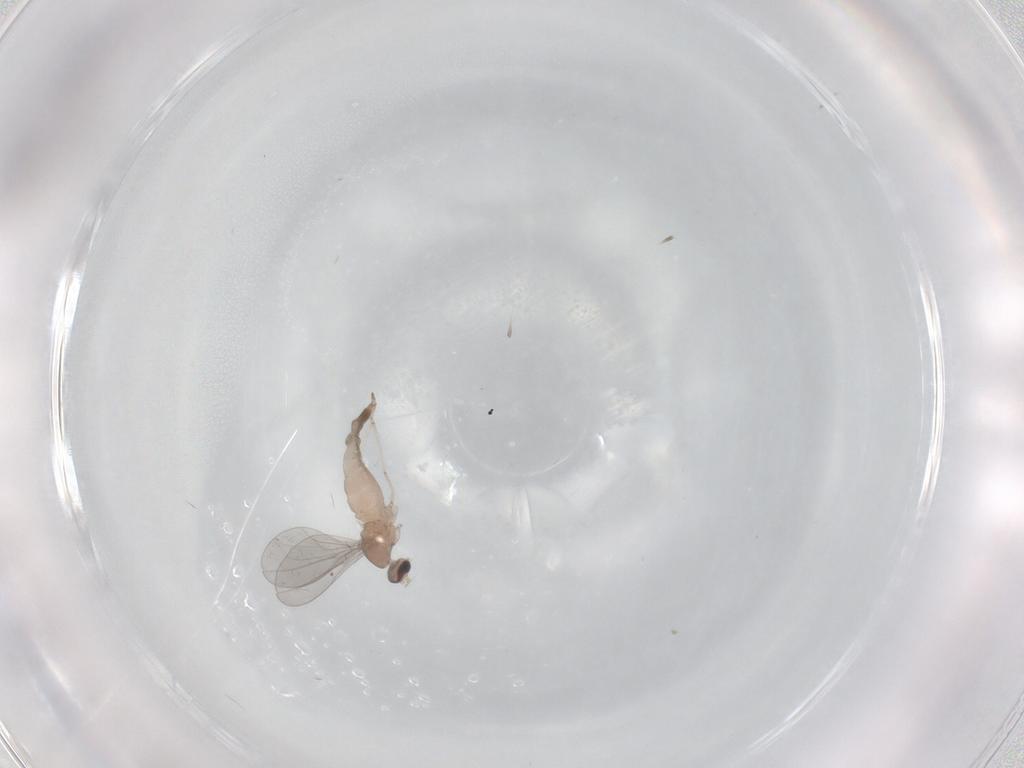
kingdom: Animalia
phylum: Arthropoda
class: Insecta
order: Diptera
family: Cecidomyiidae
